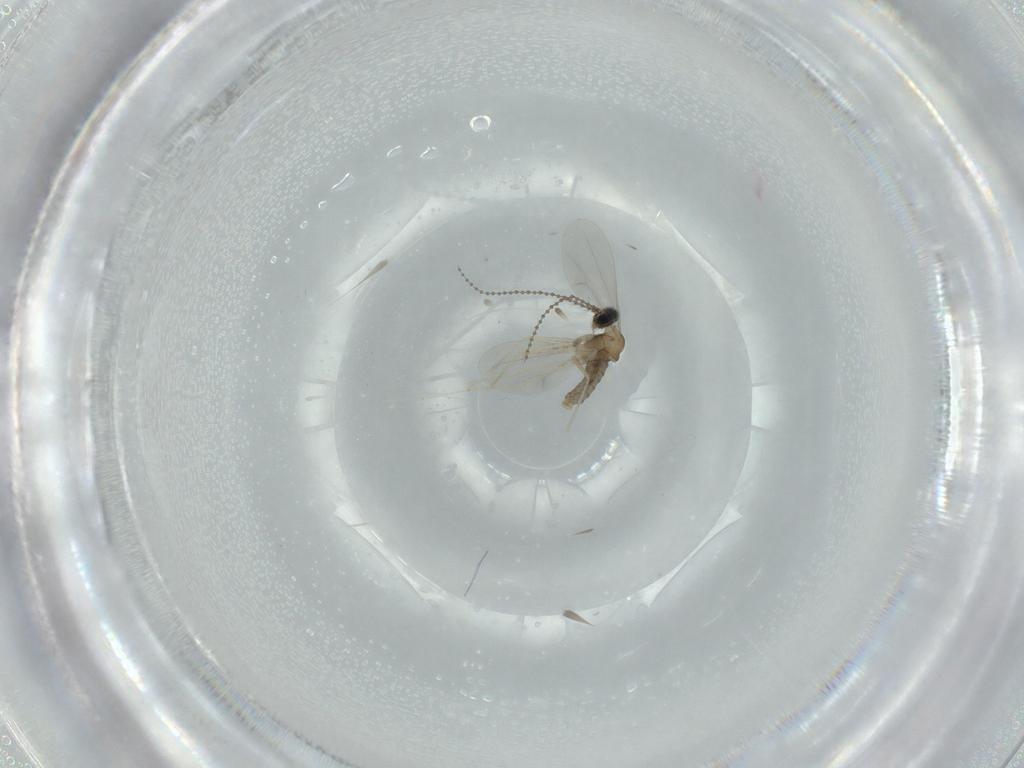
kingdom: Animalia
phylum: Arthropoda
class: Insecta
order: Diptera
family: Cecidomyiidae
